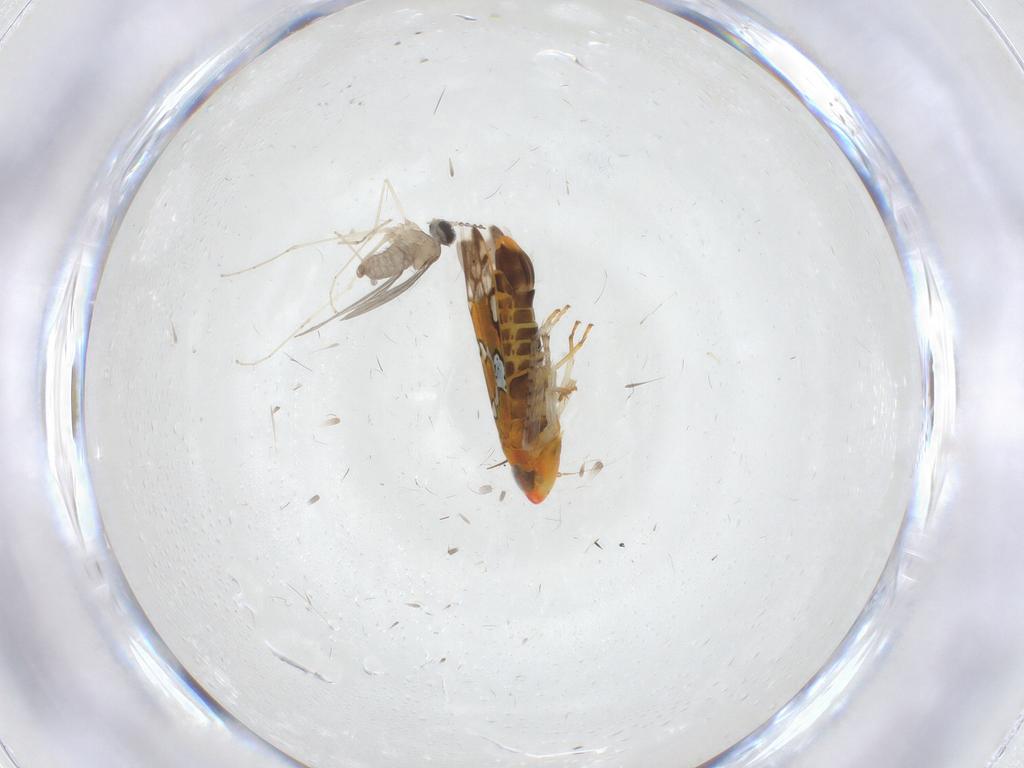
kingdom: Animalia
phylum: Arthropoda
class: Insecta
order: Hemiptera
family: Cicadellidae
